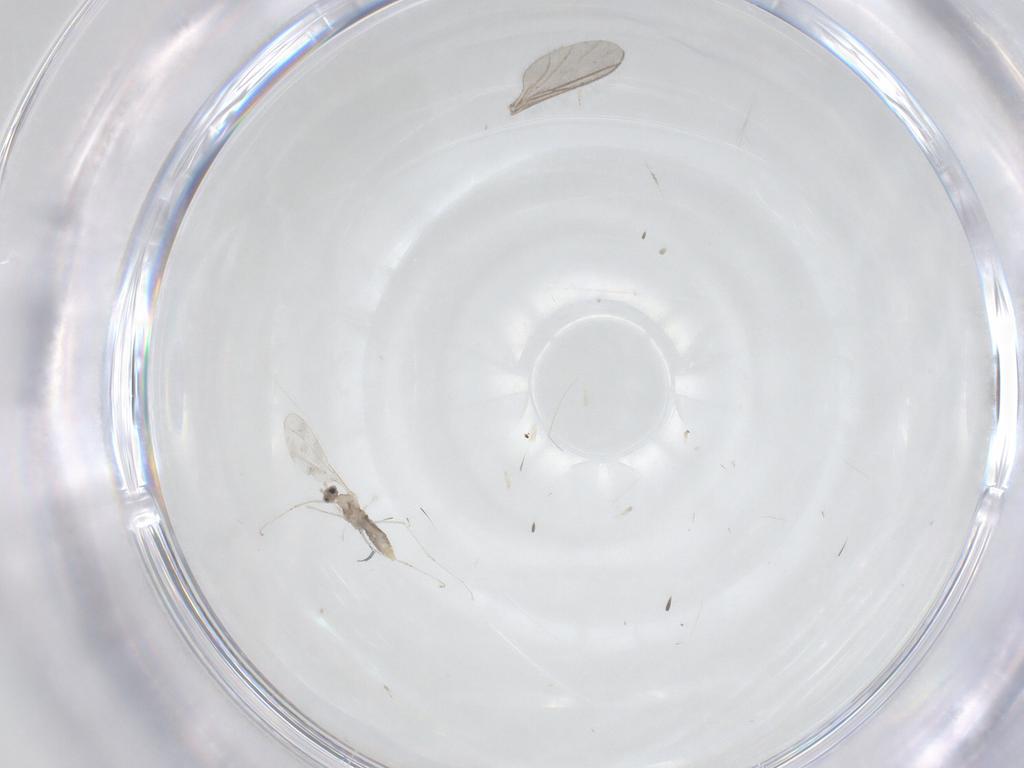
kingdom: Animalia
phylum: Arthropoda
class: Insecta
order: Diptera
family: Cecidomyiidae
